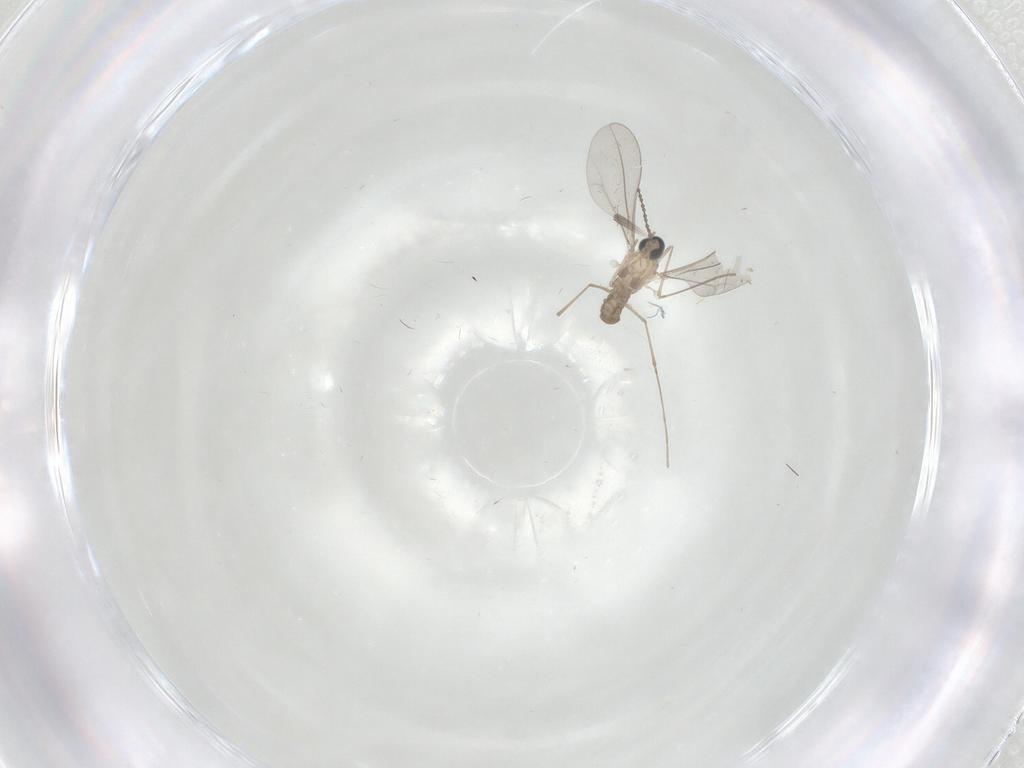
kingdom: Animalia
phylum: Arthropoda
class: Insecta
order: Diptera
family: Cecidomyiidae
